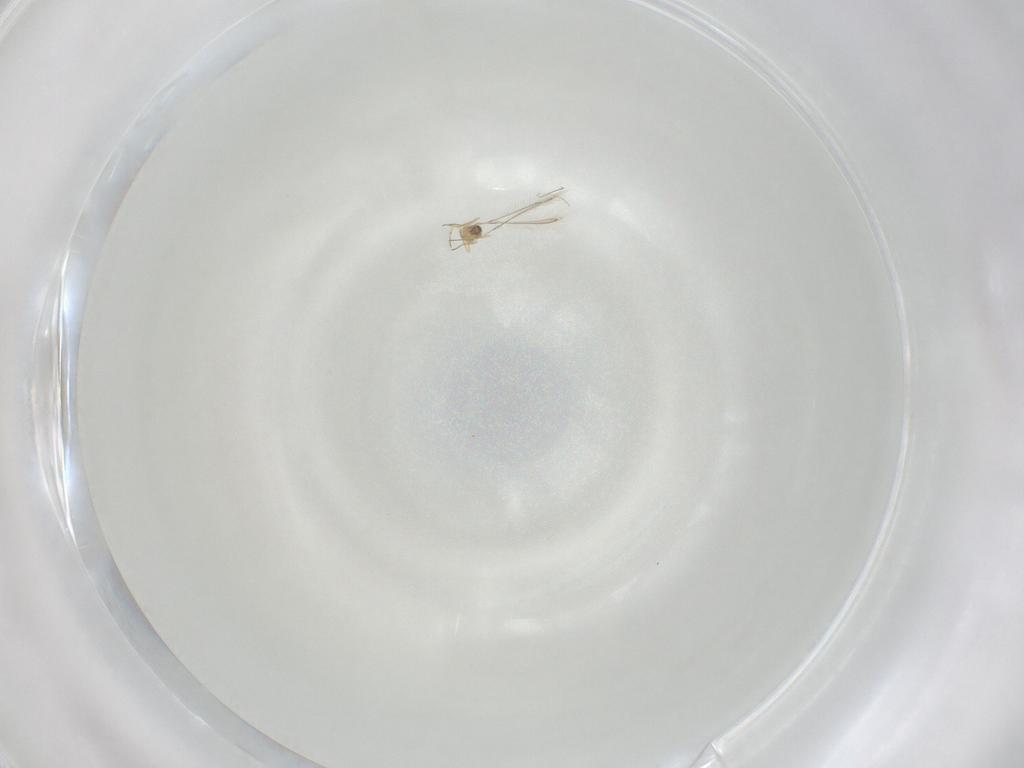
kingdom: Animalia
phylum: Arthropoda
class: Insecta
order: Hymenoptera
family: Mymaridae
